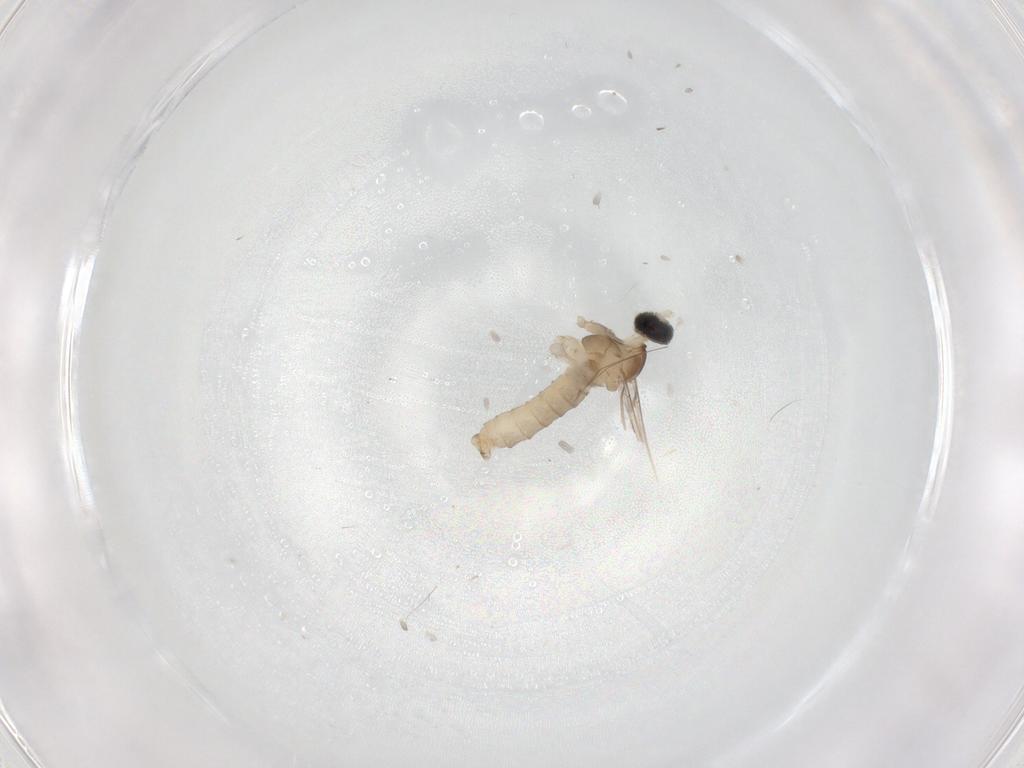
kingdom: Animalia
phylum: Arthropoda
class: Insecta
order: Diptera
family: Cecidomyiidae
